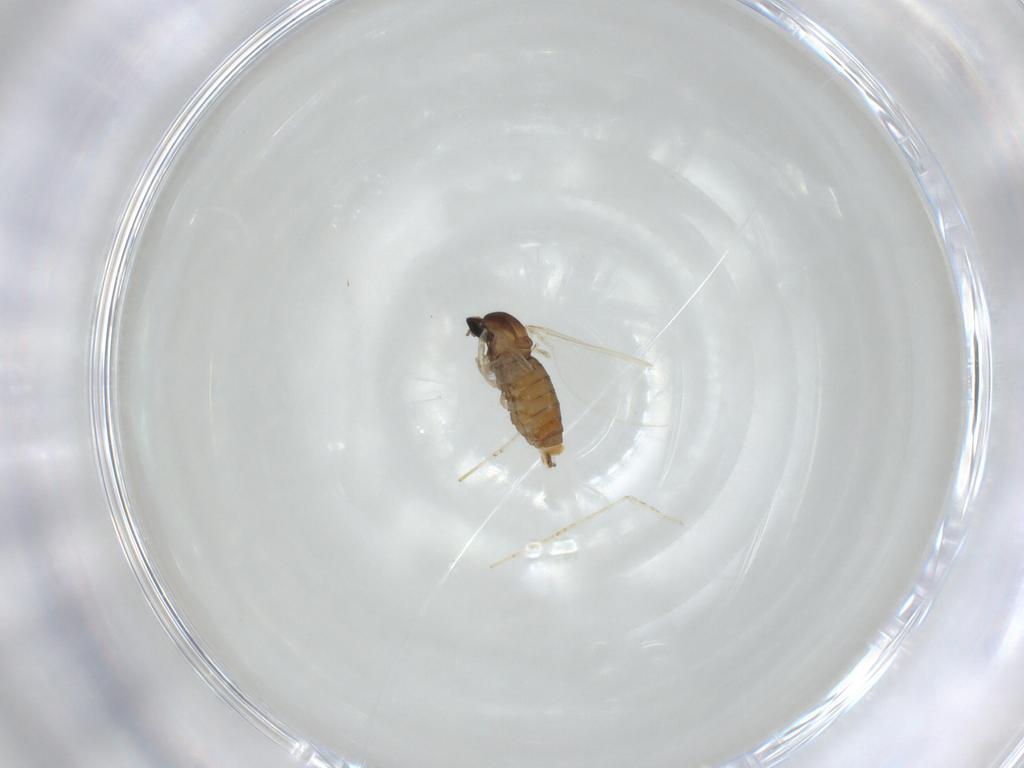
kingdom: Animalia
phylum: Arthropoda
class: Insecta
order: Diptera
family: Cecidomyiidae
